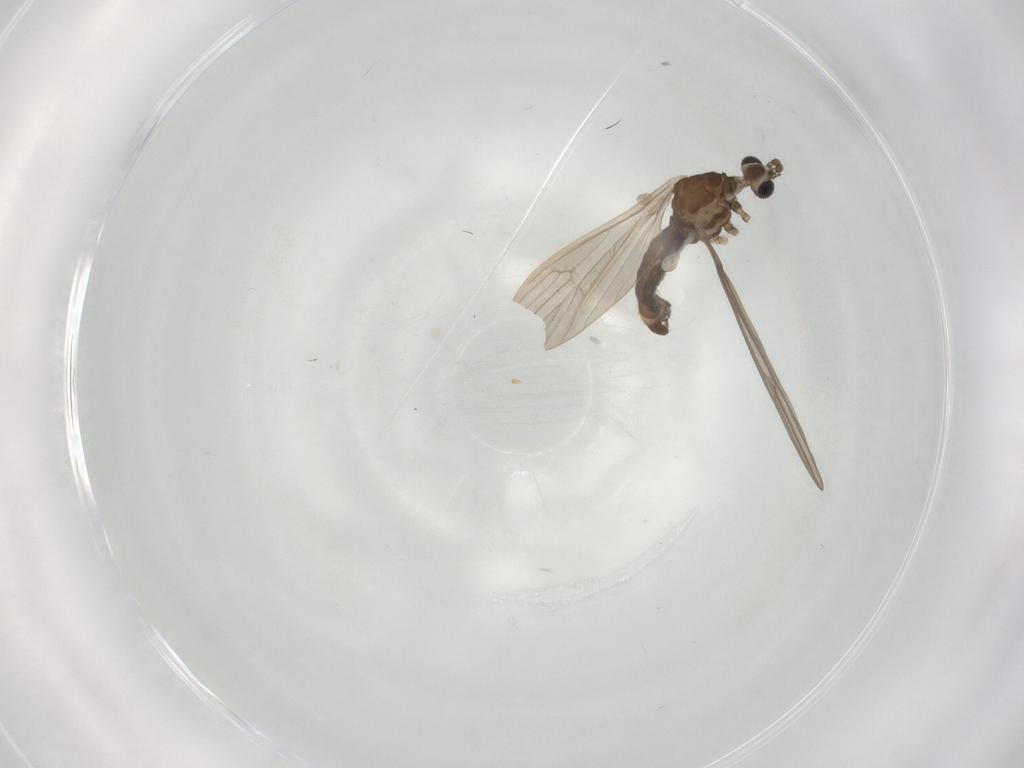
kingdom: Animalia
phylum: Arthropoda
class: Insecta
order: Diptera
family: Limoniidae
